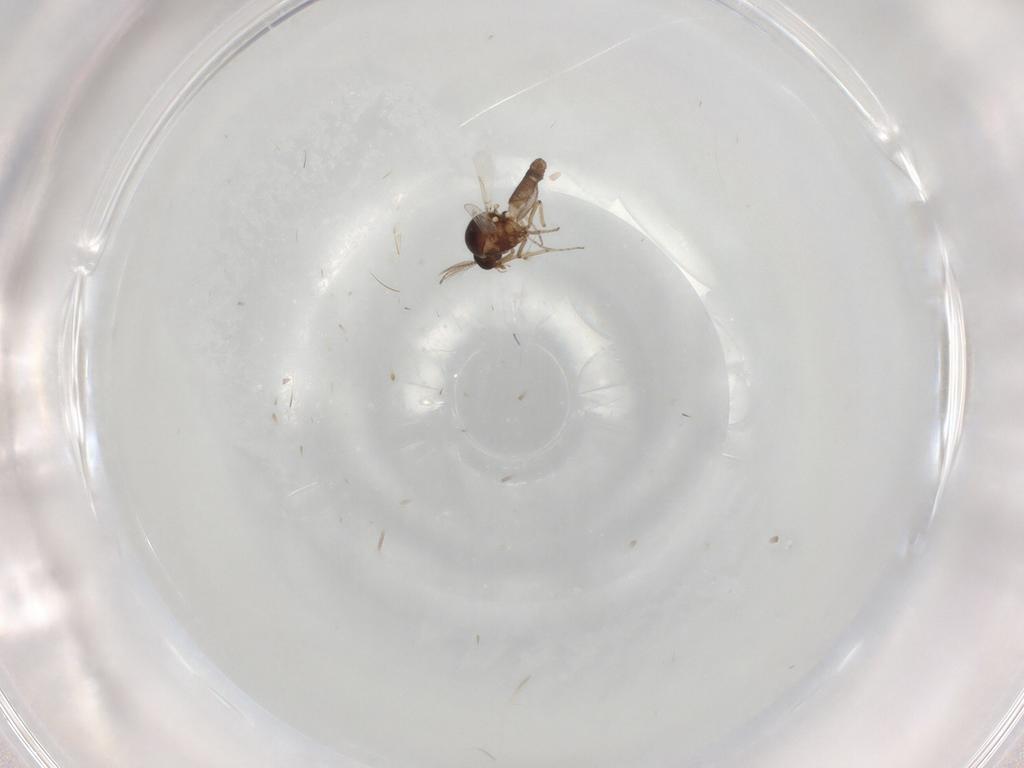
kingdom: Animalia
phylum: Arthropoda
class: Insecta
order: Diptera
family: Ceratopogonidae
